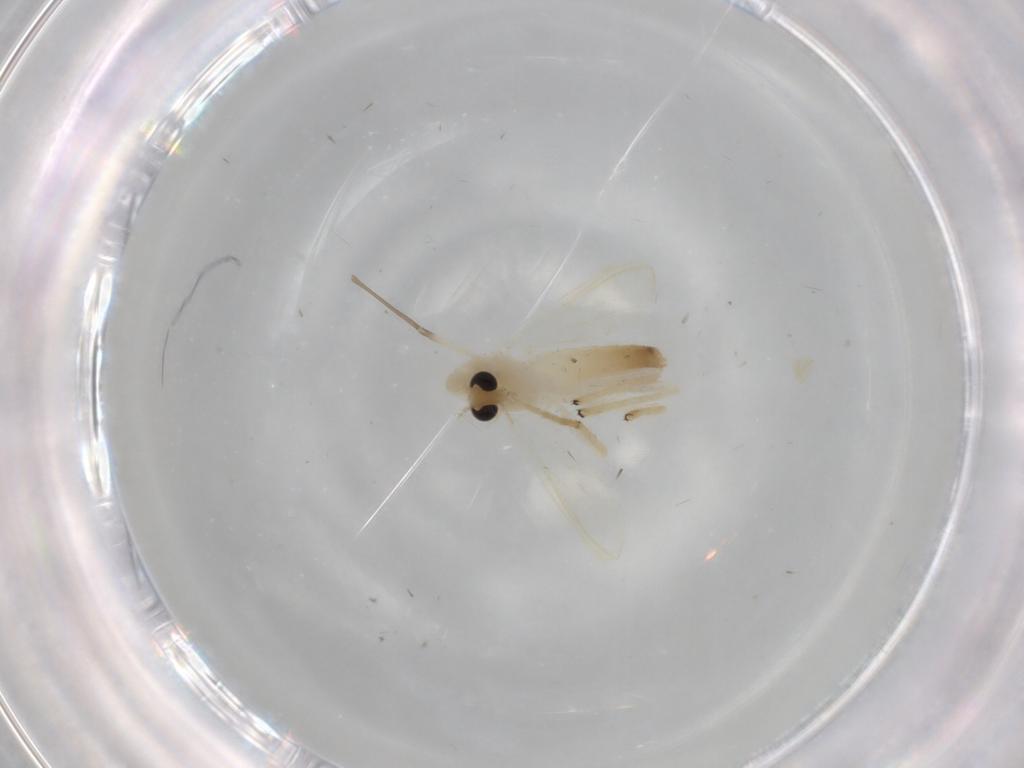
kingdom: Animalia
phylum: Arthropoda
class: Insecta
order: Diptera
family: Chironomidae
